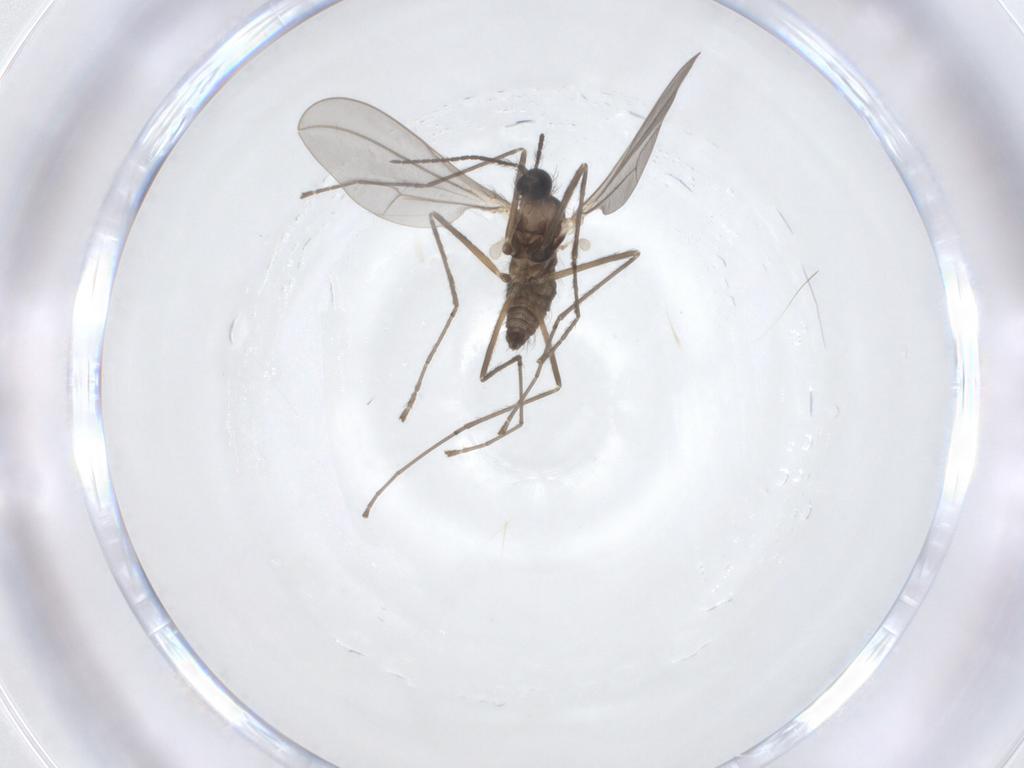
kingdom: Animalia
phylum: Arthropoda
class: Insecta
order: Diptera
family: Cecidomyiidae
